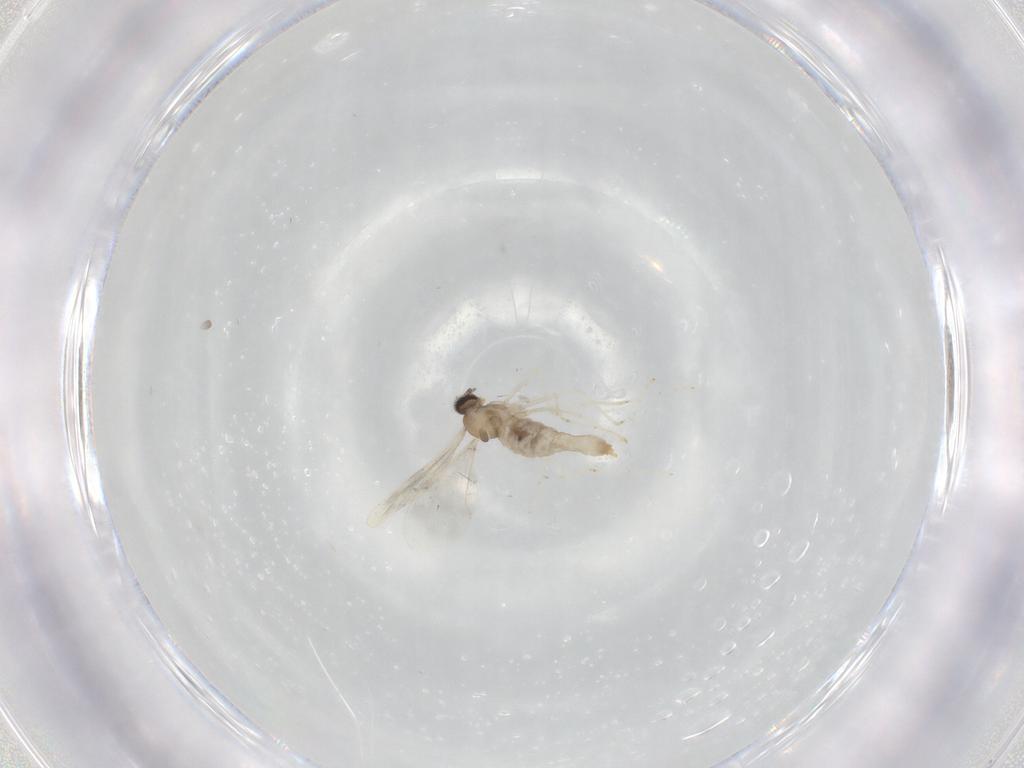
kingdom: Animalia
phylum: Arthropoda
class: Insecta
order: Diptera
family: Cecidomyiidae
